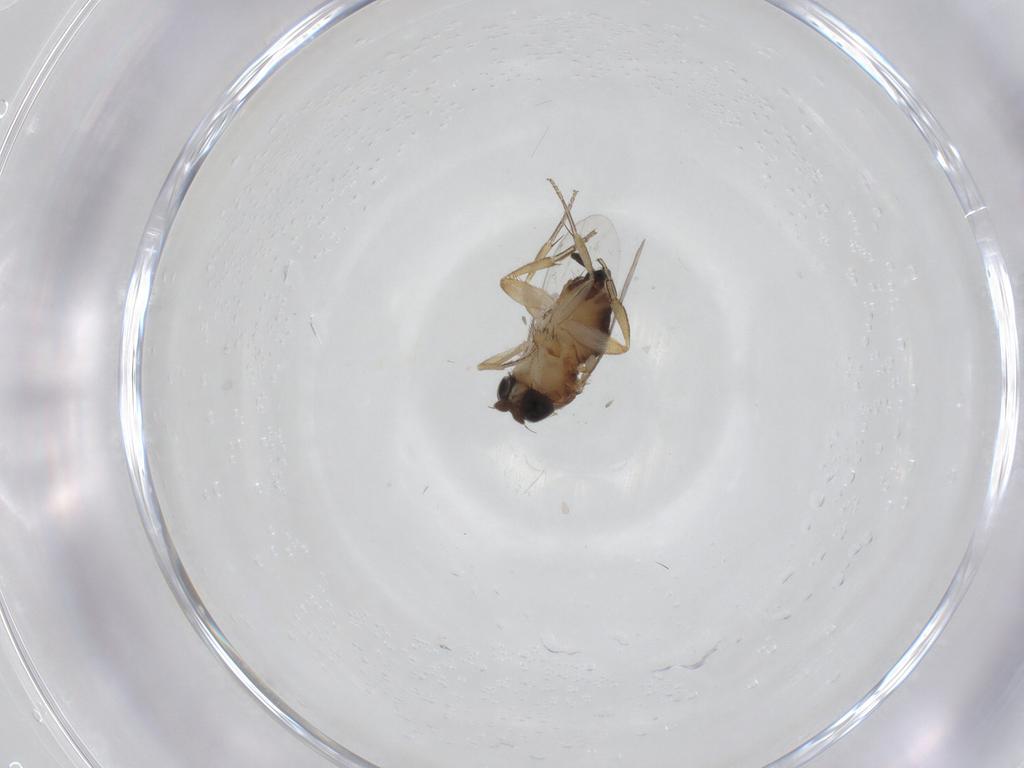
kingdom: Animalia
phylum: Arthropoda
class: Insecta
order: Diptera
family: Phoridae
